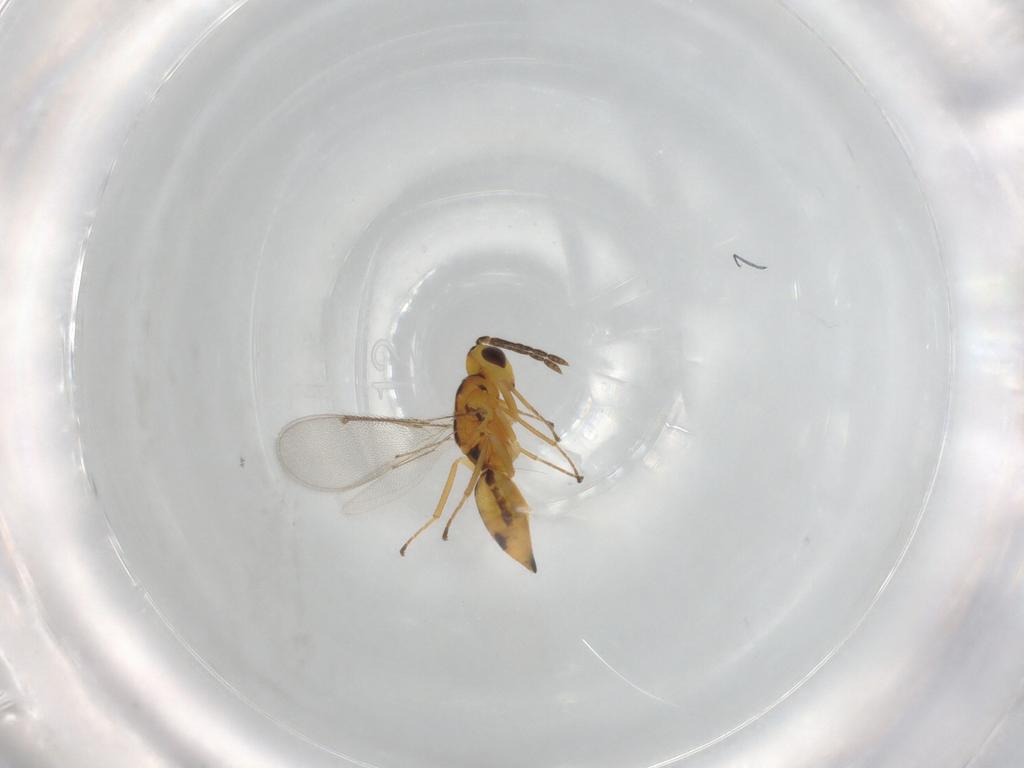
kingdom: Animalia
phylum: Arthropoda
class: Insecta
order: Hymenoptera
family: Eulophidae
